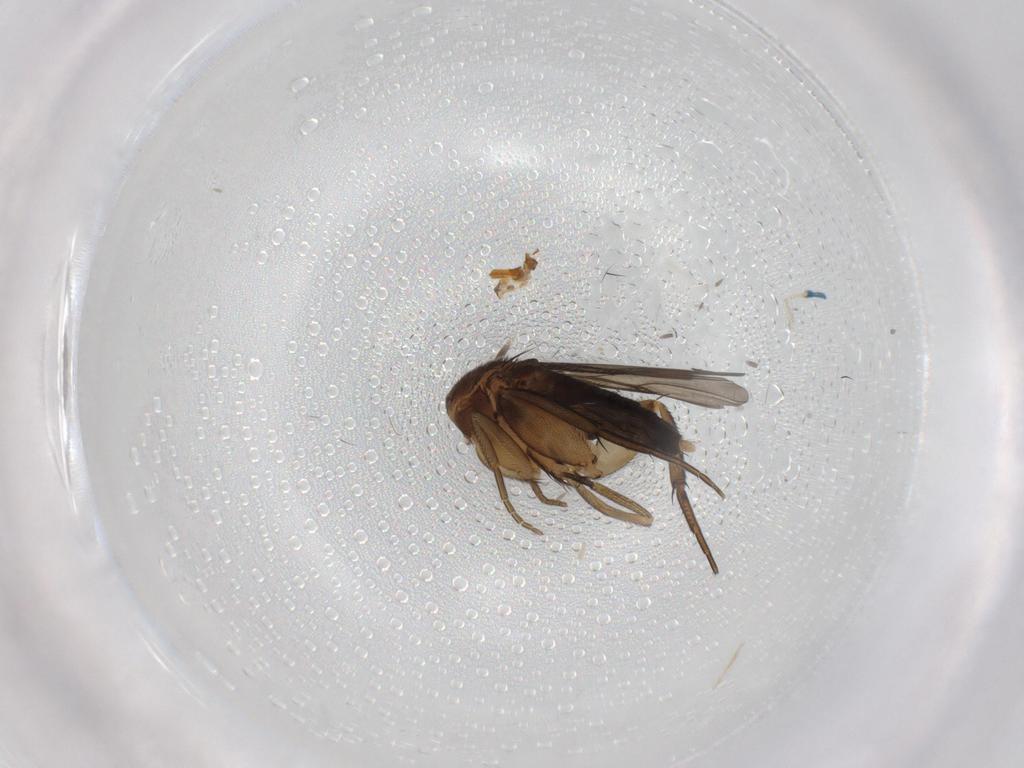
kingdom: Animalia
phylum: Arthropoda
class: Insecta
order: Diptera
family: Phoridae
